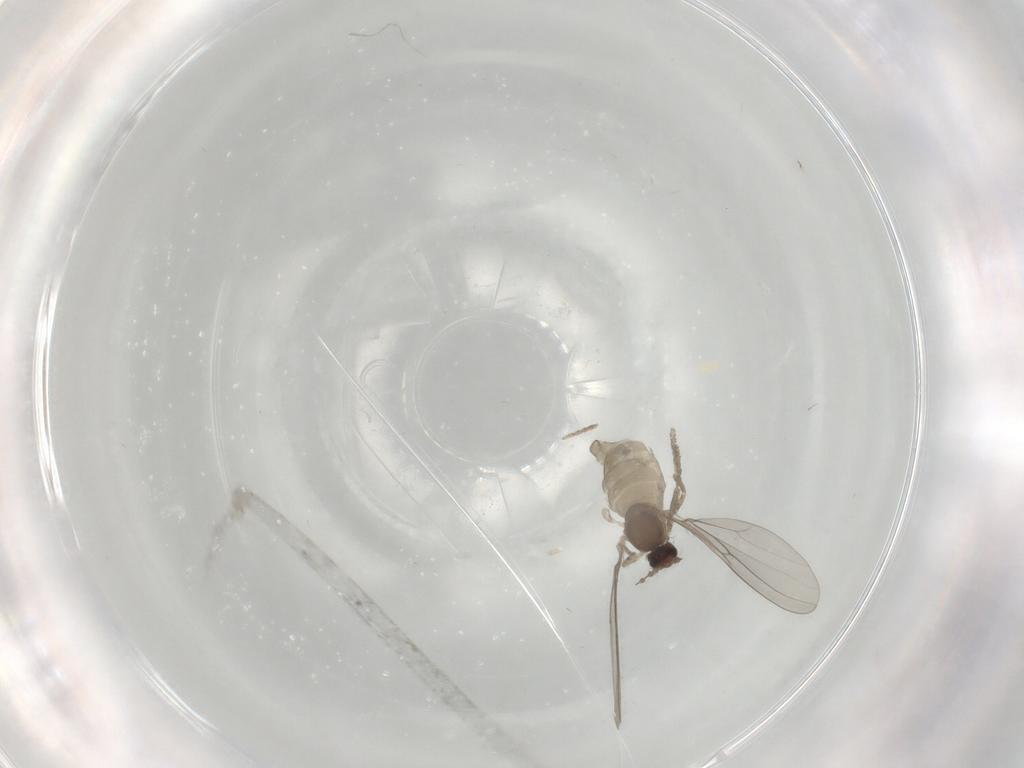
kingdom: Animalia
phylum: Arthropoda
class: Insecta
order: Diptera
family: Cecidomyiidae
